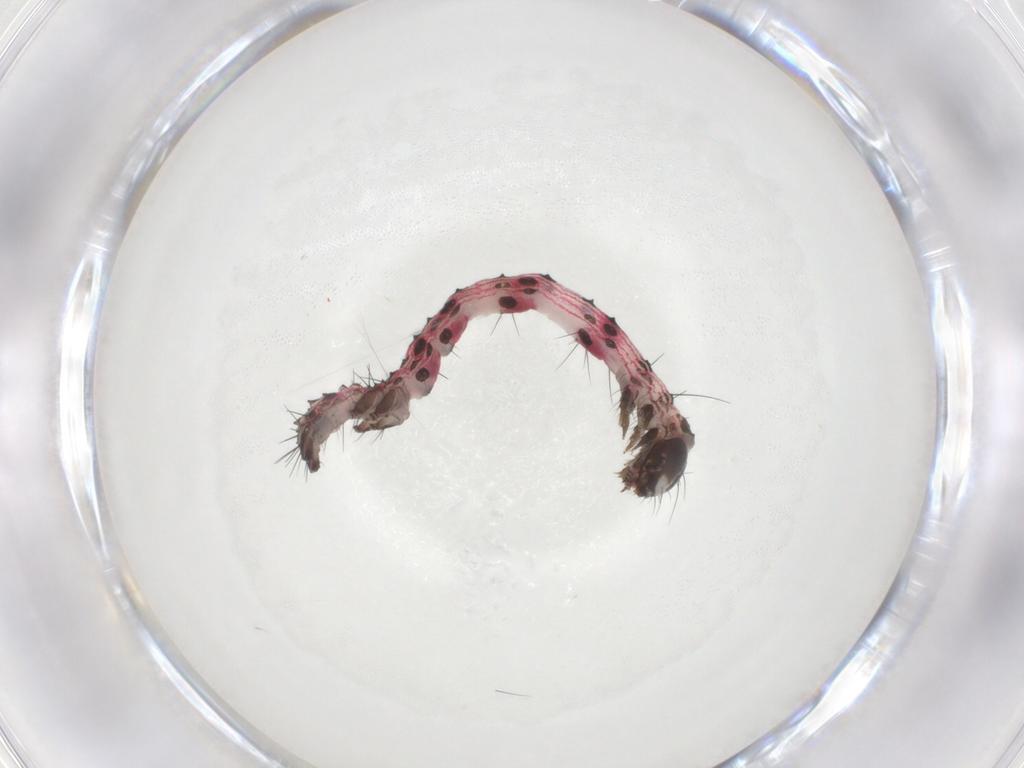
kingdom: Animalia
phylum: Arthropoda
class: Insecta
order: Lepidoptera
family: Erebidae
